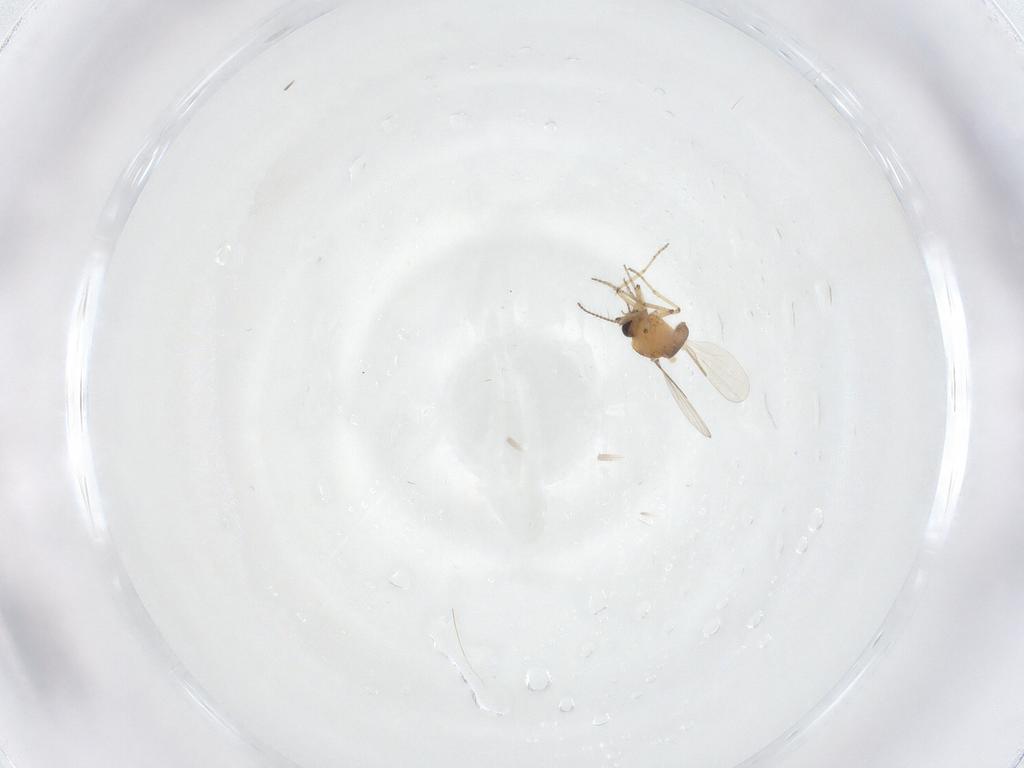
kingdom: Animalia
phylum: Arthropoda
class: Insecta
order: Diptera
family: Ceratopogonidae
